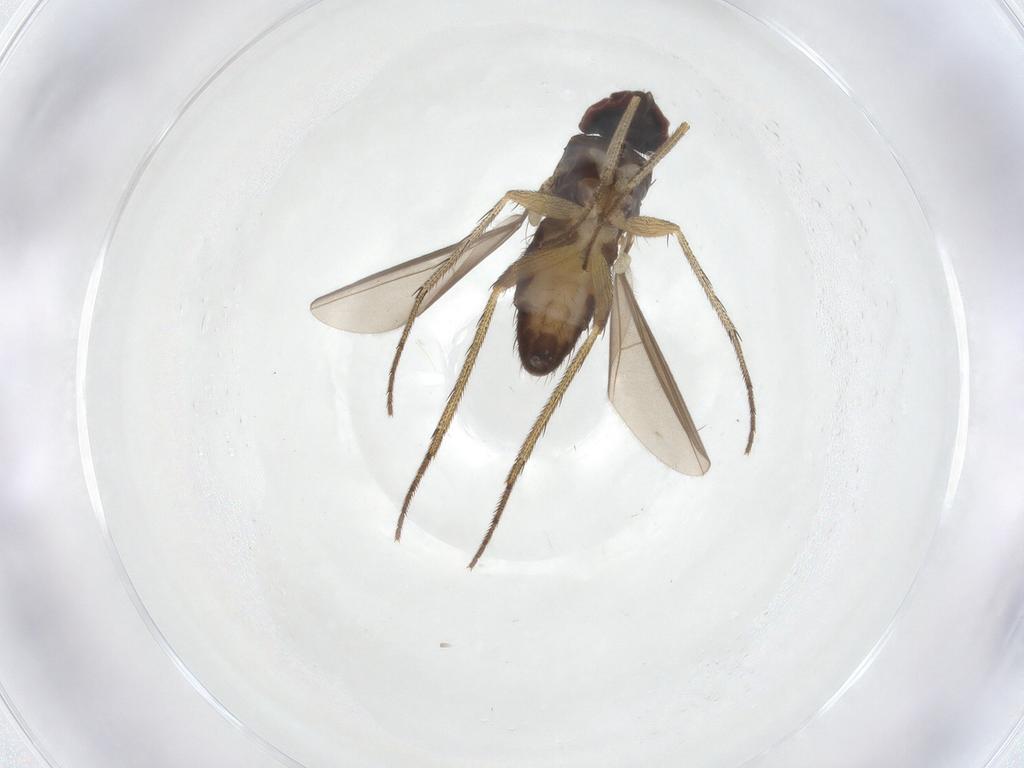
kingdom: Animalia
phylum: Arthropoda
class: Insecta
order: Diptera
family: Dolichopodidae
